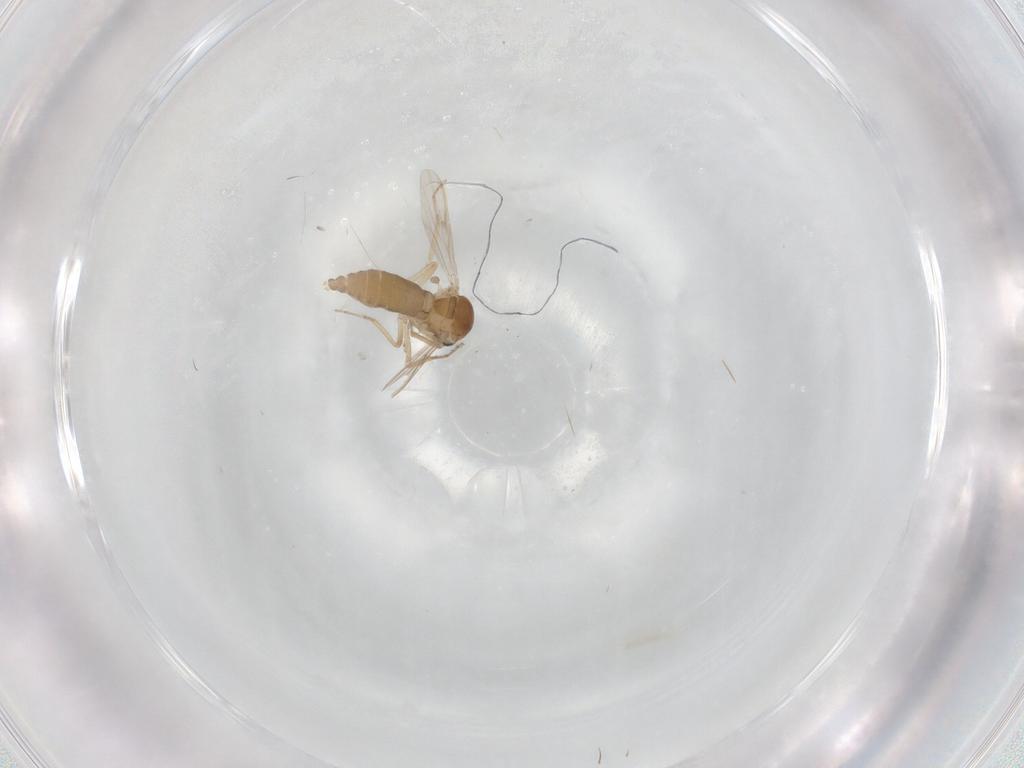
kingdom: Animalia
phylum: Arthropoda
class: Insecta
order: Diptera
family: Ceratopogonidae
